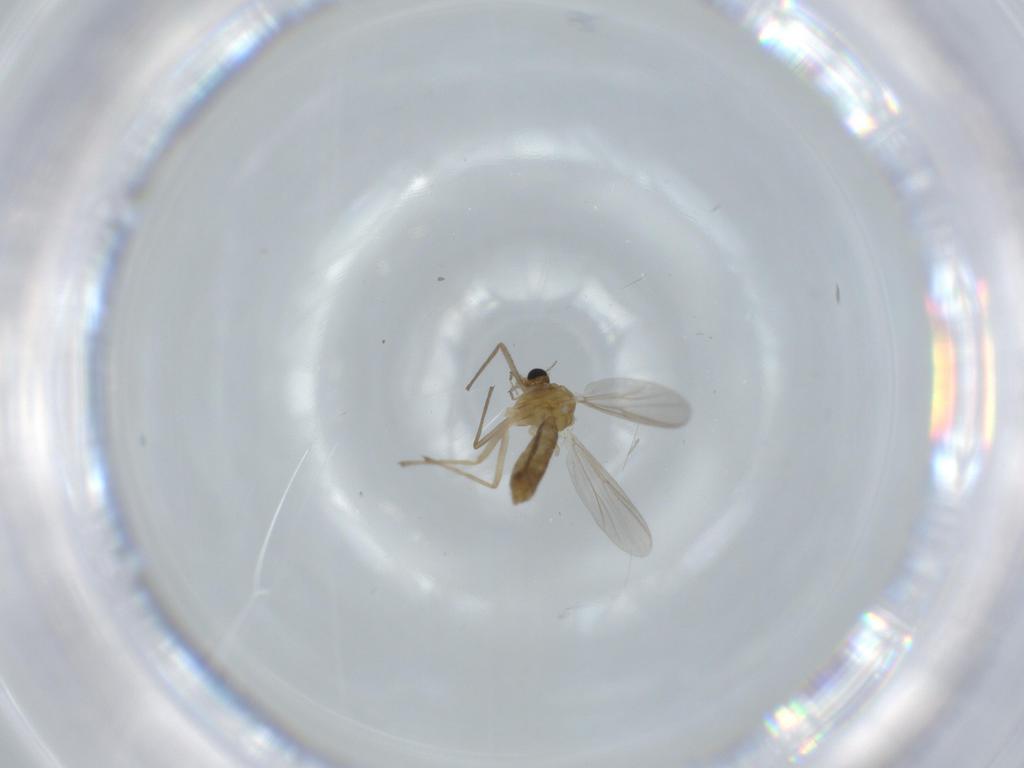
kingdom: Animalia
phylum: Arthropoda
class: Insecta
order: Diptera
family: Chironomidae
